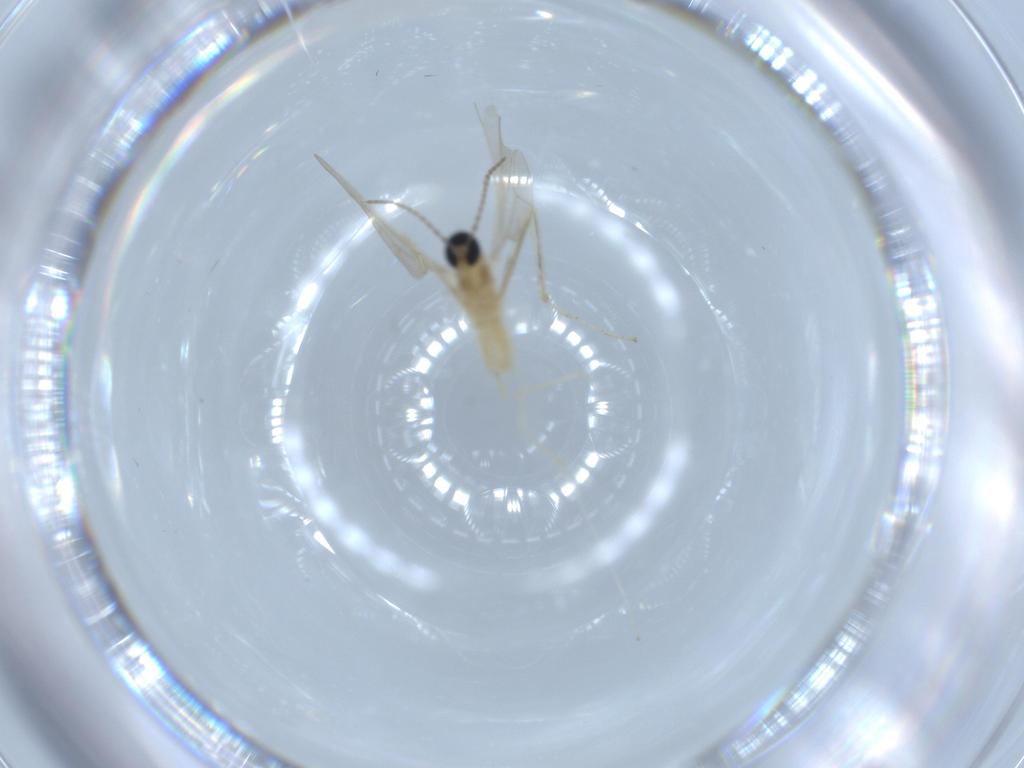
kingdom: Animalia
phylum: Arthropoda
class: Insecta
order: Diptera
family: Cecidomyiidae
